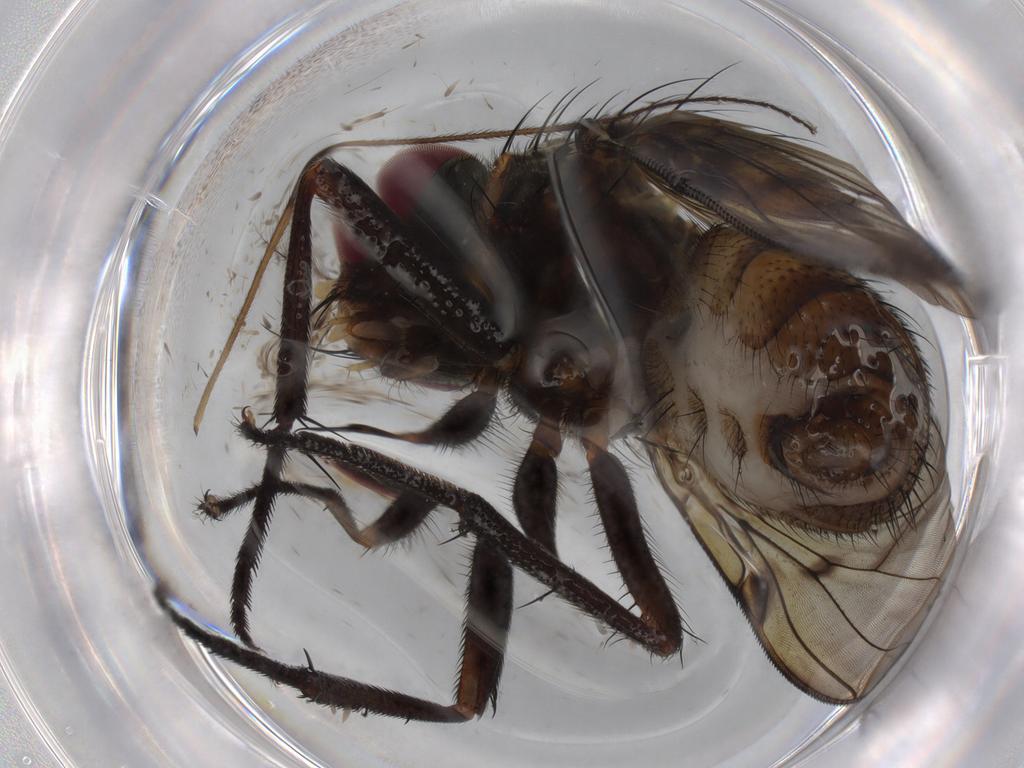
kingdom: Animalia
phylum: Arthropoda
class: Insecta
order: Diptera
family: Muscidae
